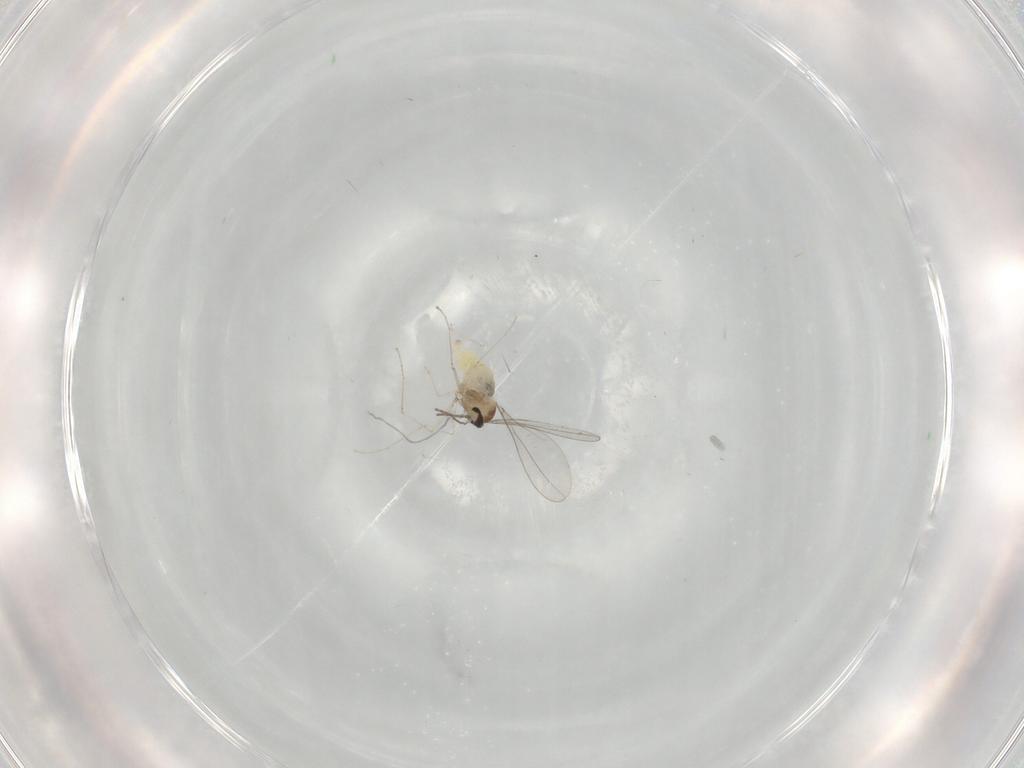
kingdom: Animalia
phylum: Arthropoda
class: Insecta
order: Diptera
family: Cecidomyiidae
